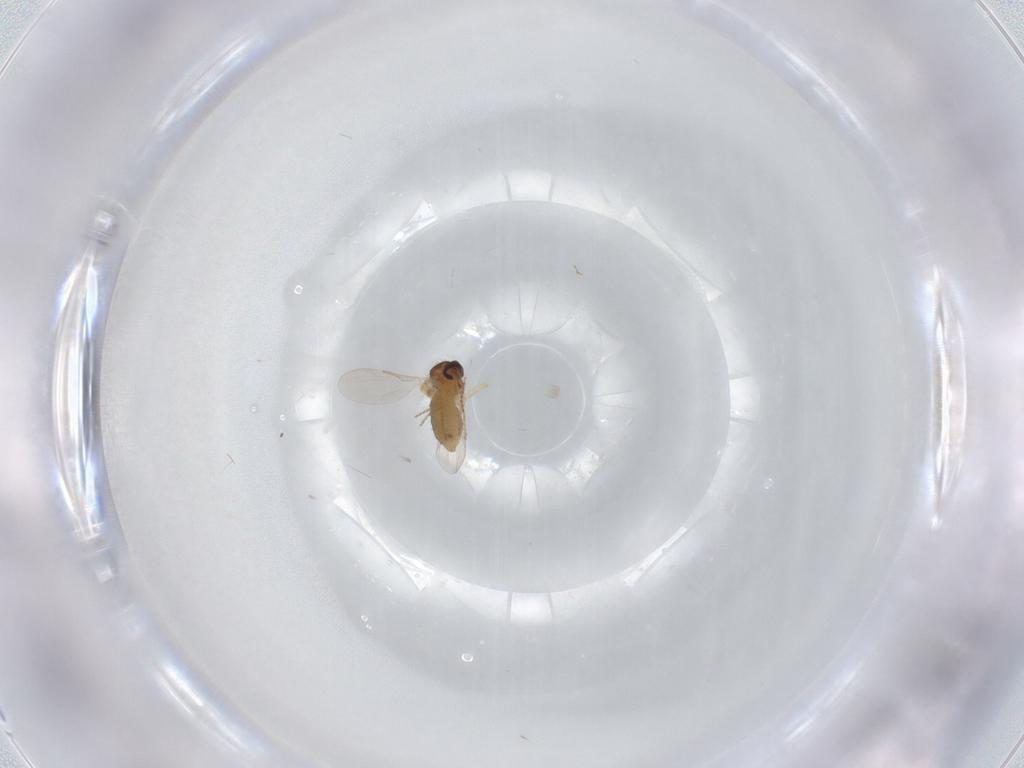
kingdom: Animalia
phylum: Arthropoda
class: Insecta
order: Diptera
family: Ceratopogonidae
